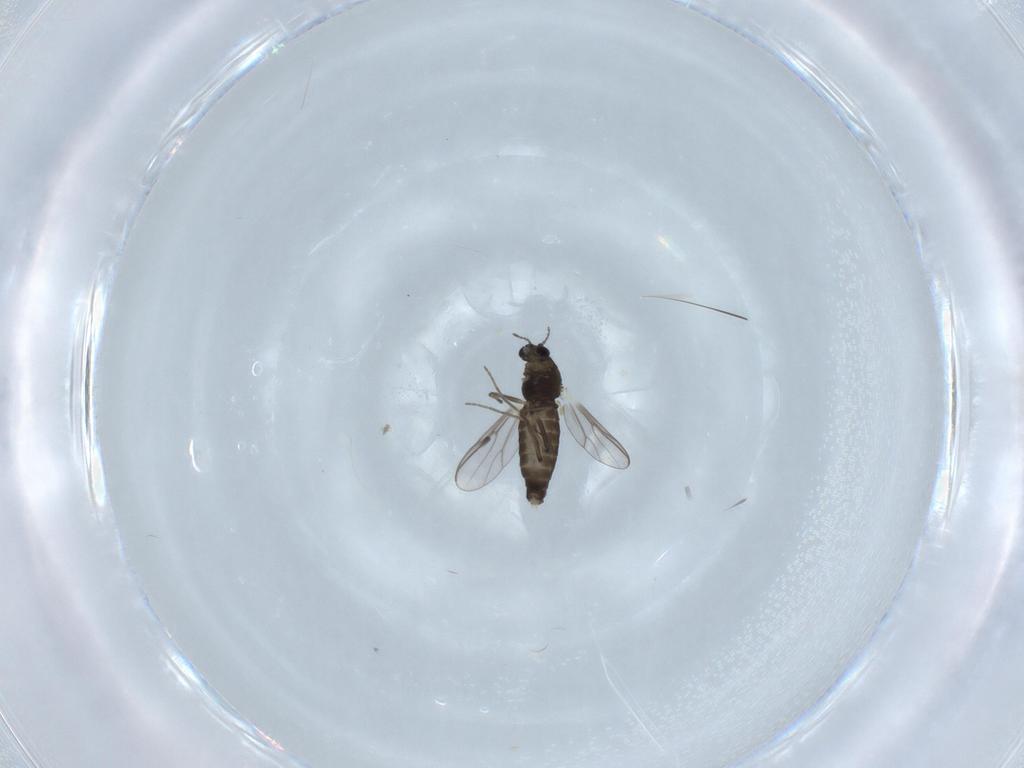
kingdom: Animalia
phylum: Arthropoda
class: Insecta
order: Diptera
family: Chironomidae
